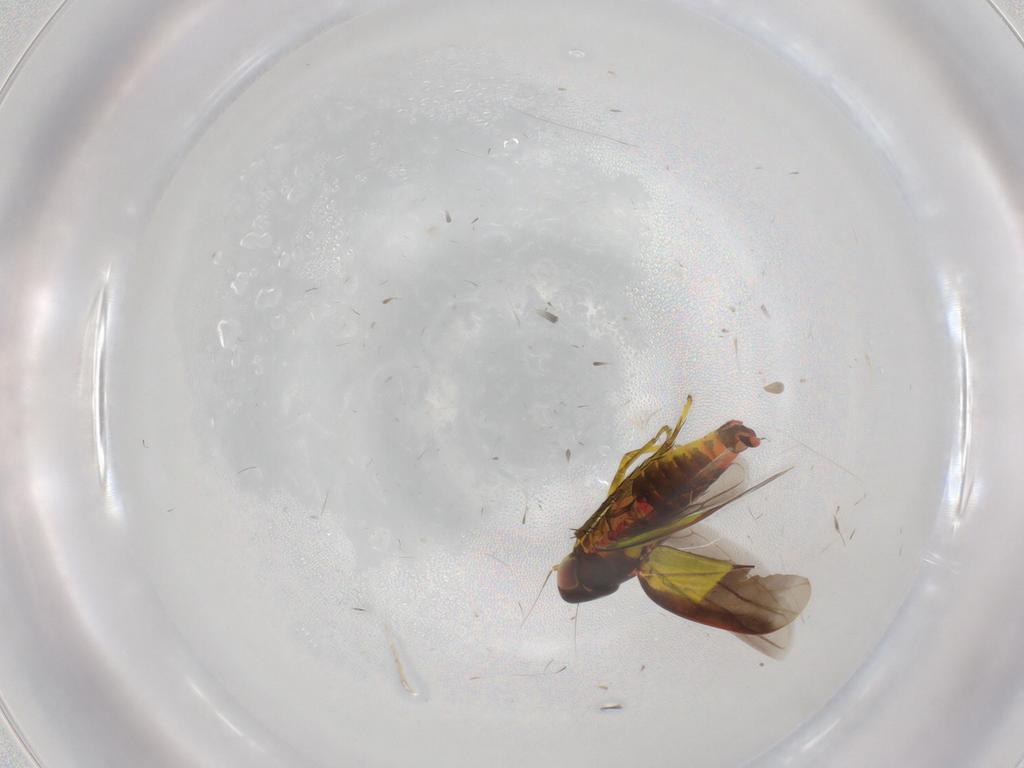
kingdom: Animalia
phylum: Arthropoda
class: Insecta
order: Hemiptera
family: Cicadellidae
